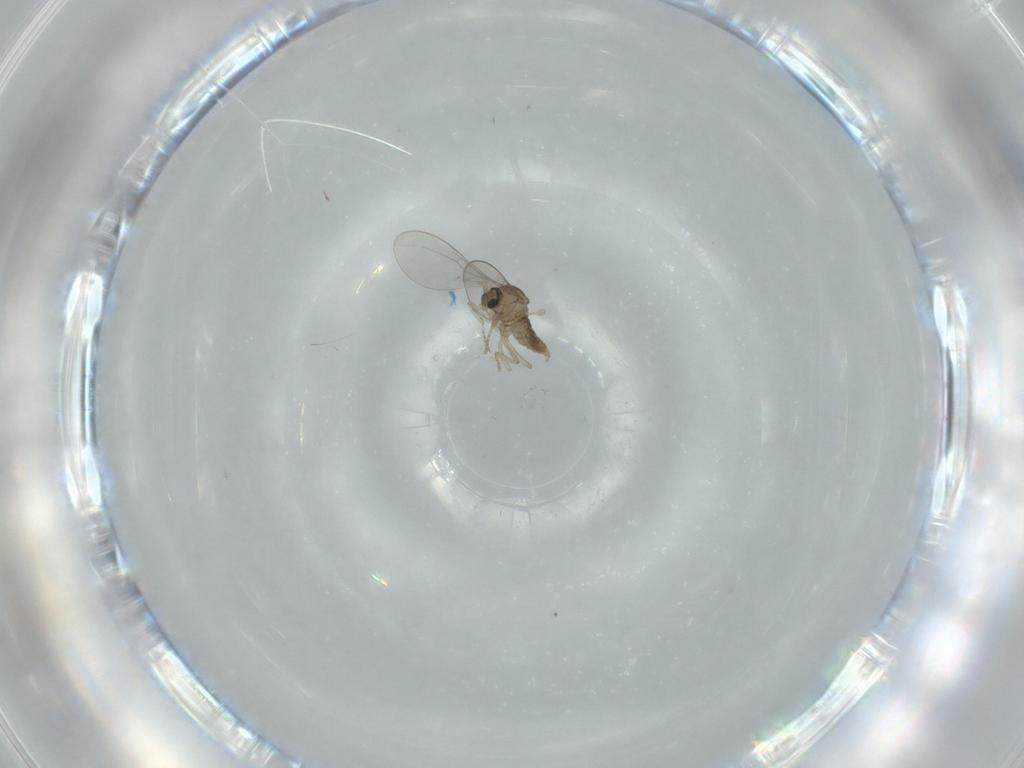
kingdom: Animalia
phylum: Arthropoda
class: Insecta
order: Diptera
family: Cecidomyiidae
